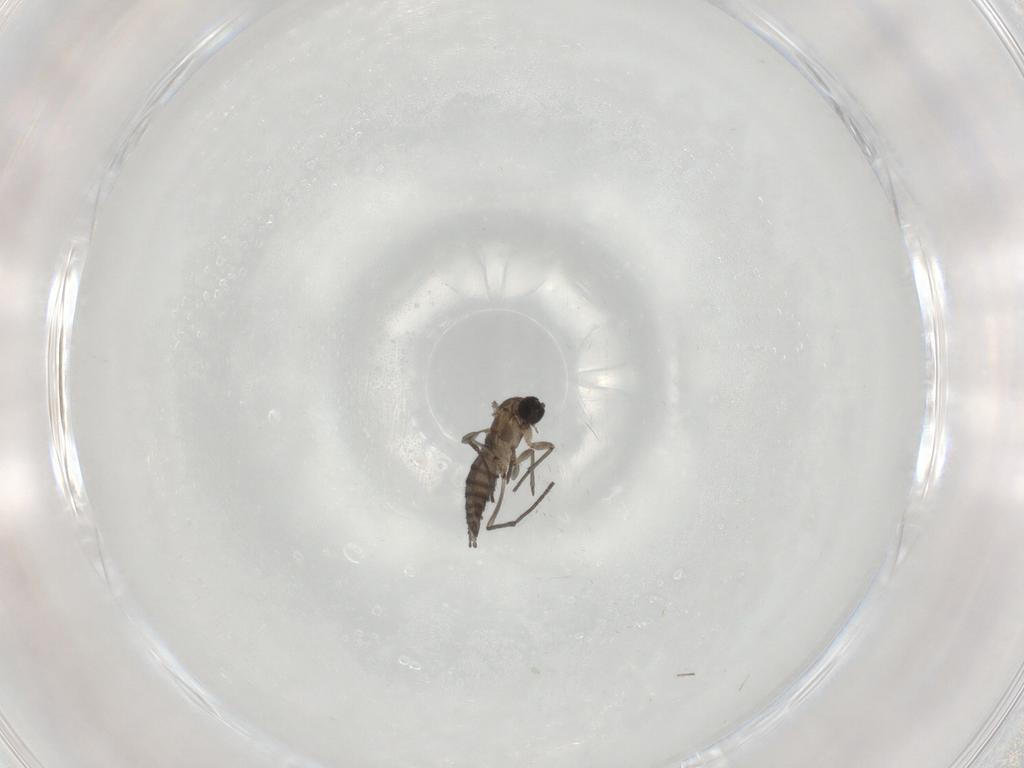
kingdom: Animalia
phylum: Arthropoda
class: Insecta
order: Diptera
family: Sciaridae
